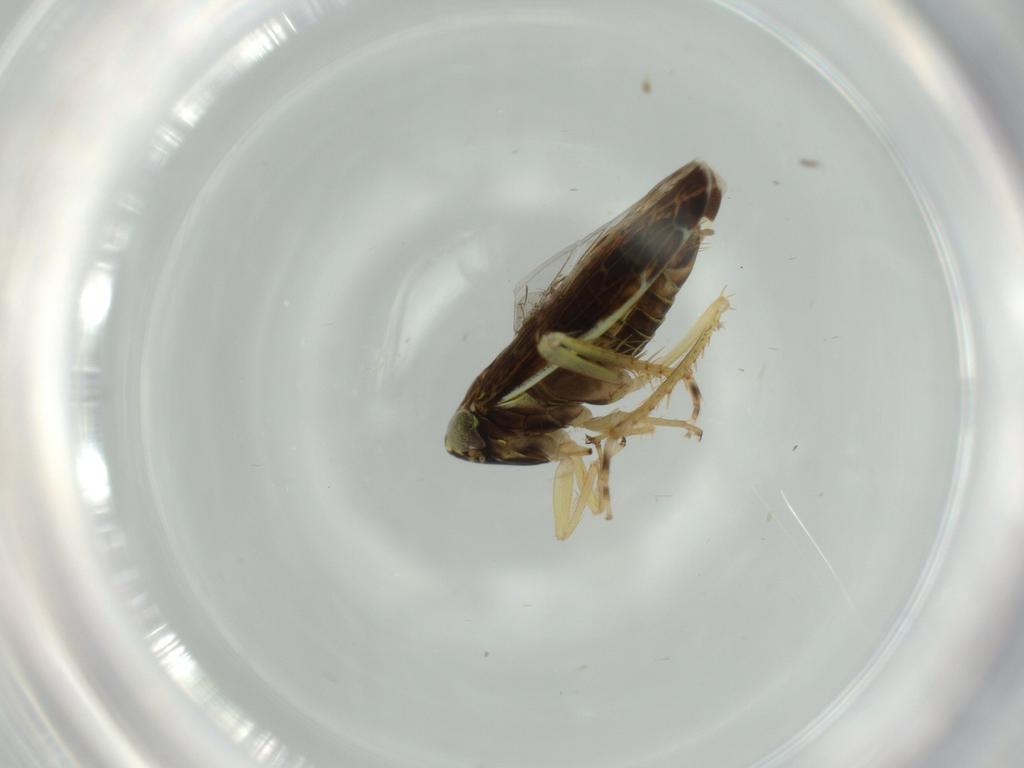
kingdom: Animalia
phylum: Arthropoda
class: Insecta
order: Hemiptera
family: Cicadellidae
